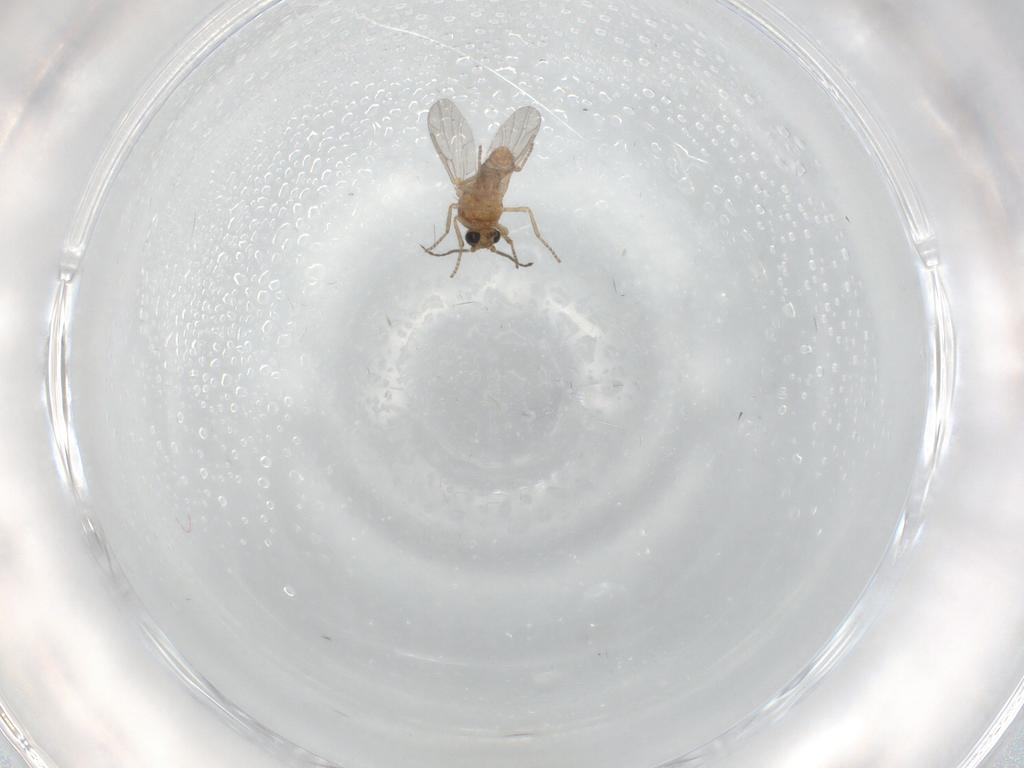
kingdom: Animalia
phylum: Arthropoda
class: Insecta
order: Diptera
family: Ceratopogonidae
